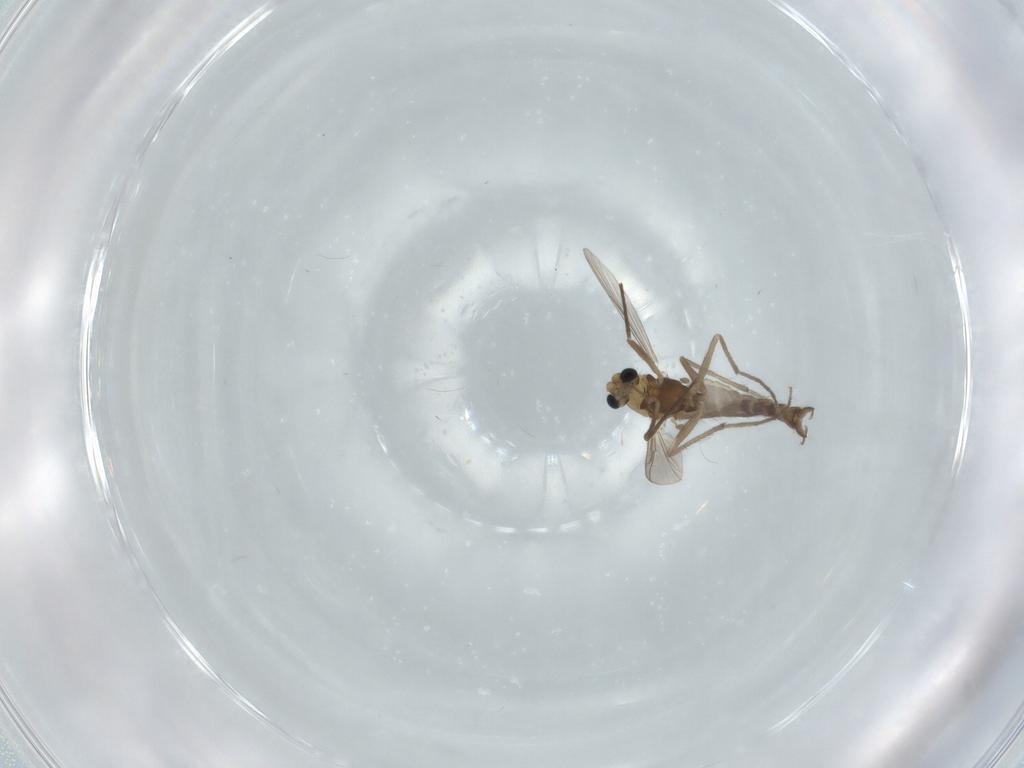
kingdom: Animalia
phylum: Arthropoda
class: Insecta
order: Diptera
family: Chironomidae
